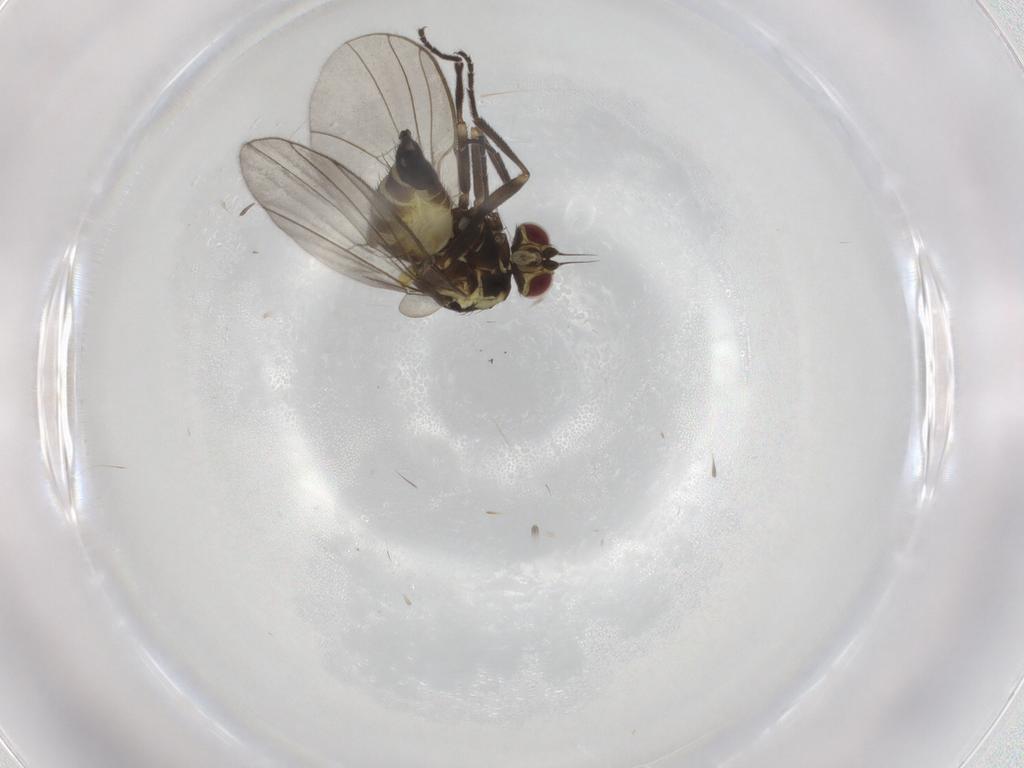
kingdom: Animalia
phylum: Arthropoda
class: Insecta
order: Diptera
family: Agromyzidae
